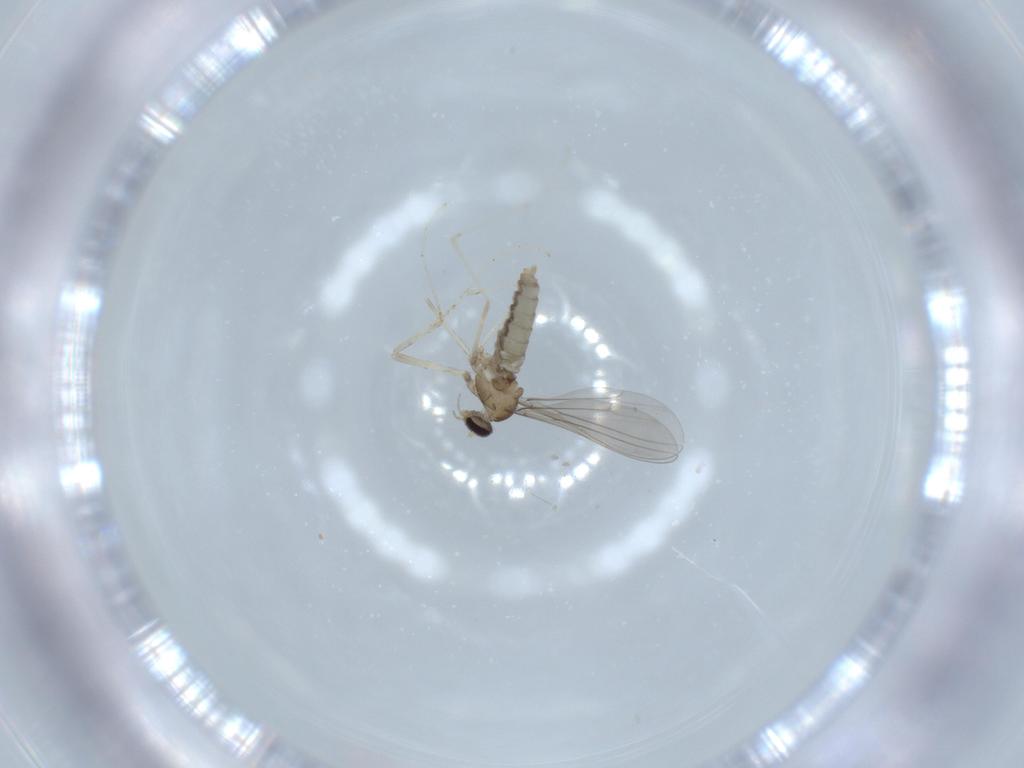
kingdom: Animalia
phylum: Arthropoda
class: Insecta
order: Diptera
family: Cecidomyiidae
